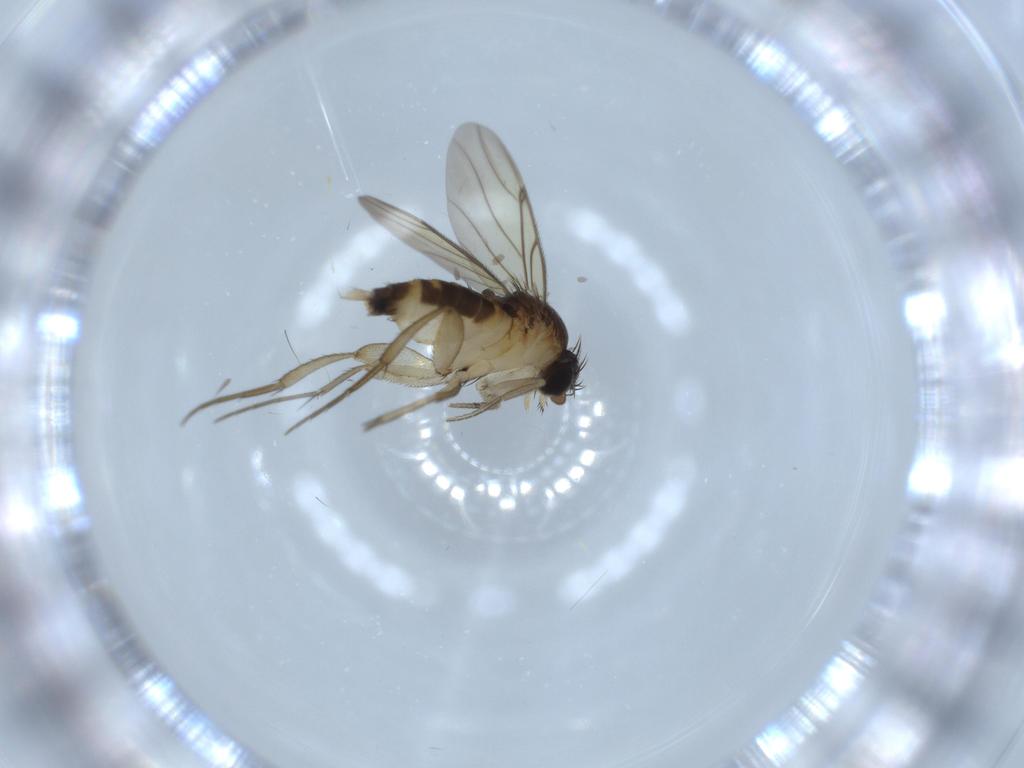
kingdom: Animalia
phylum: Arthropoda
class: Insecta
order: Diptera
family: Phoridae
